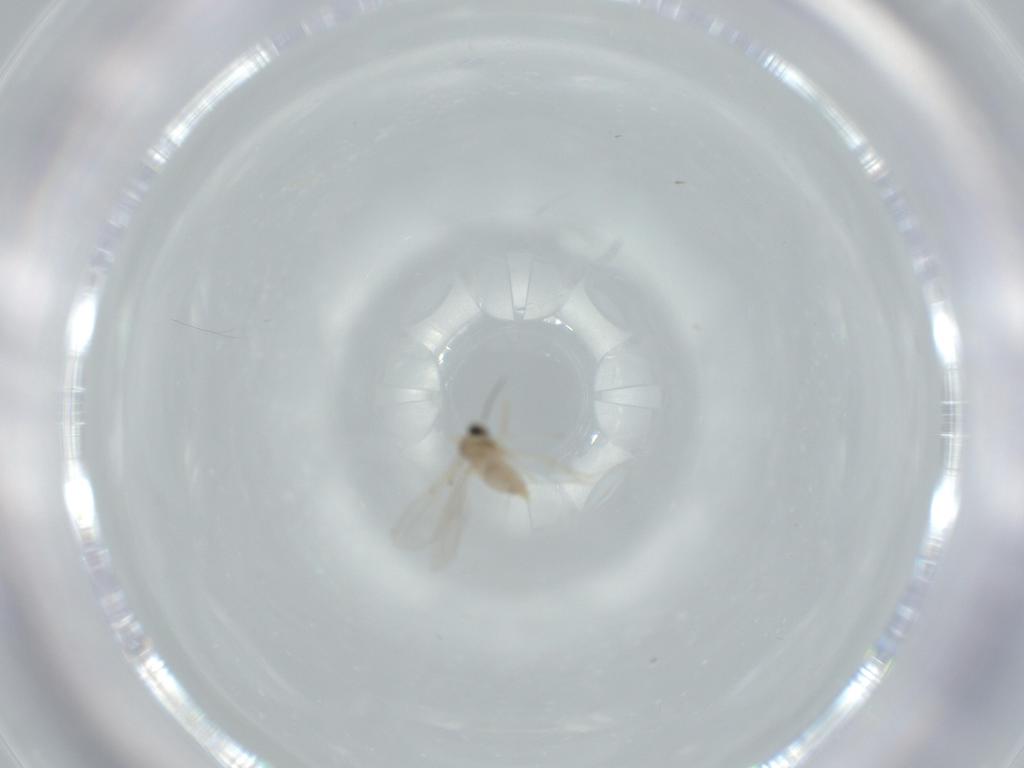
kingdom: Animalia
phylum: Arthropoda
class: Insecta
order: Diptera
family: Cecidomyiidae
